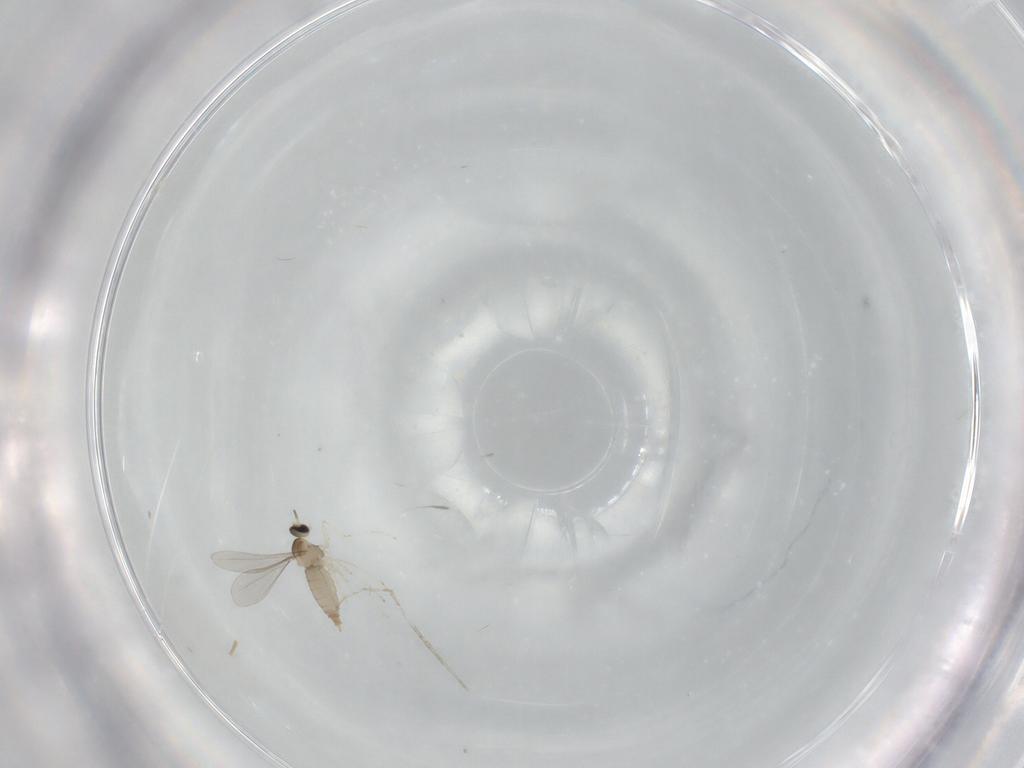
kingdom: Animalia
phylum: Arthropoda
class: Insecta
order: Diptera
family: Cecidomyiidae
